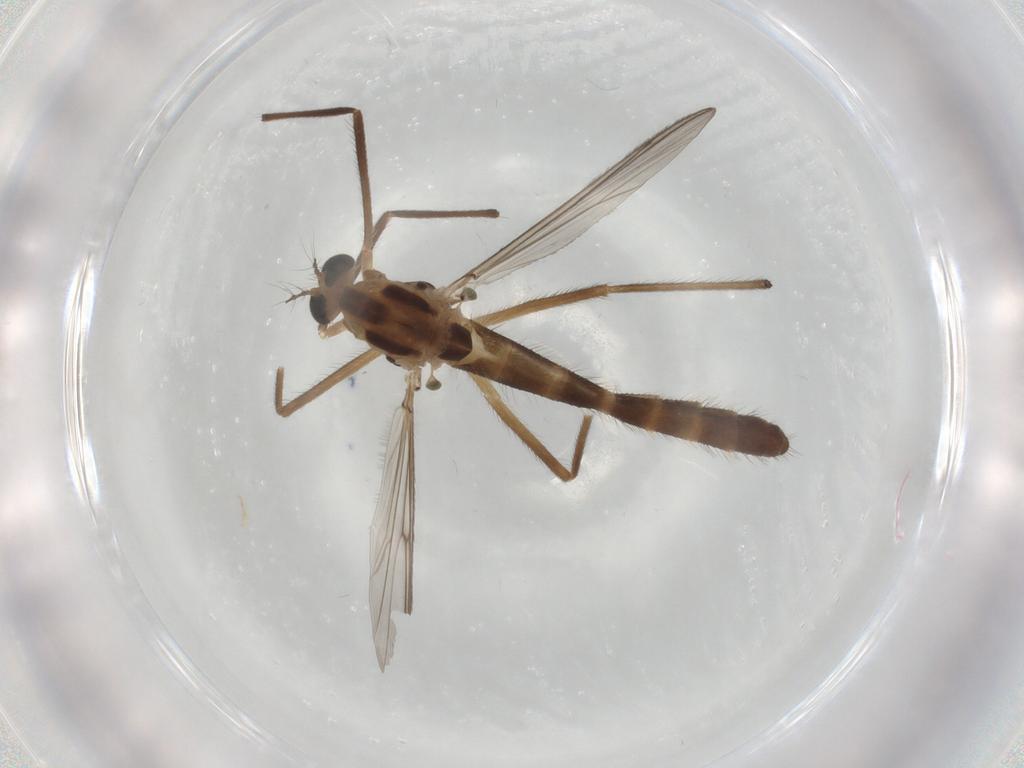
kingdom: Animalia
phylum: Arthropoda
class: Insecta
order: Diptera
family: Chironomidae
